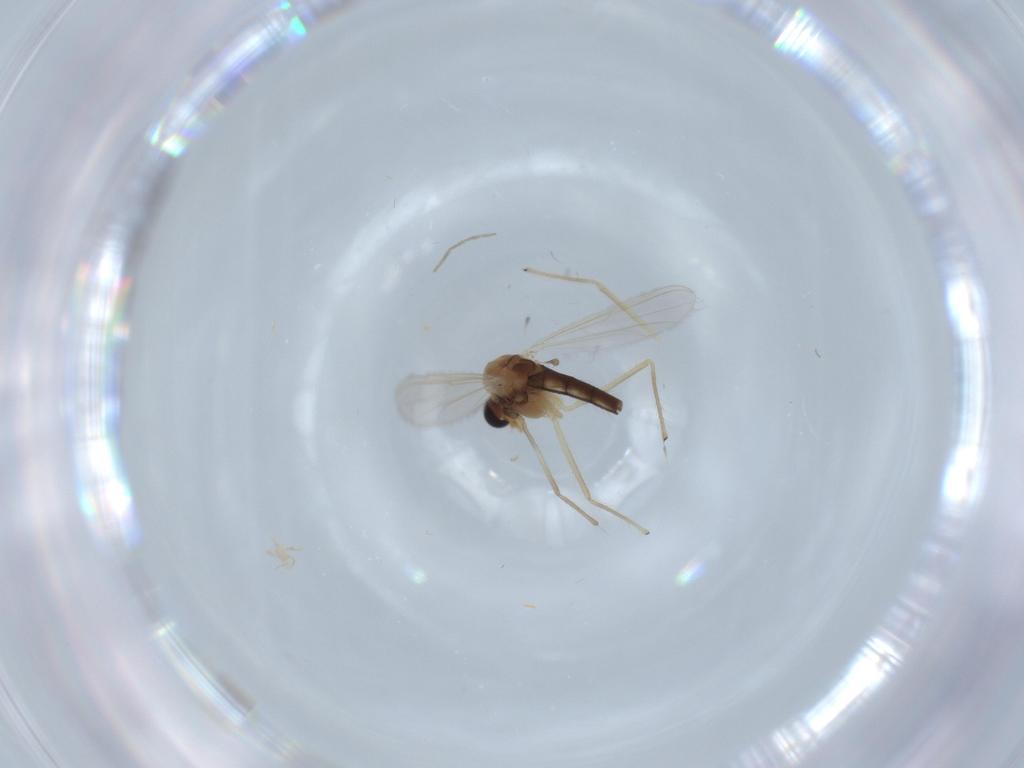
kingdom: Animalia
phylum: Arthropoda
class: Insecta
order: Diptera
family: Chironomidae
